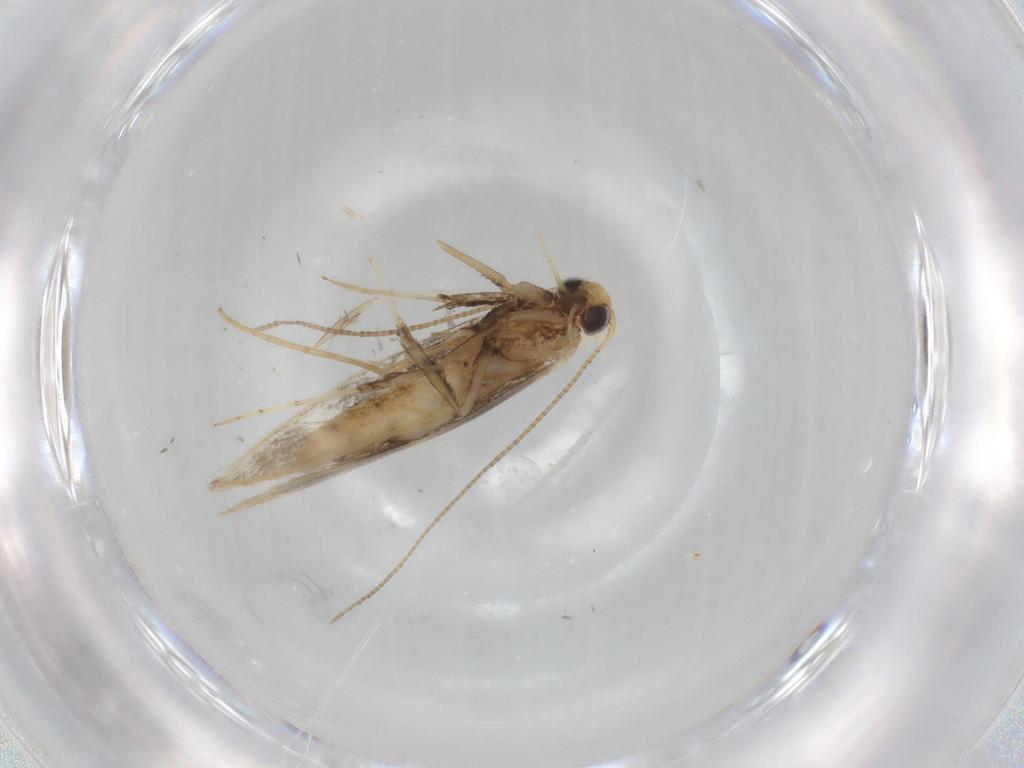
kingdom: Animalia
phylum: Arthropoda
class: Insecta
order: Lepidoptera
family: Gracillariidae
